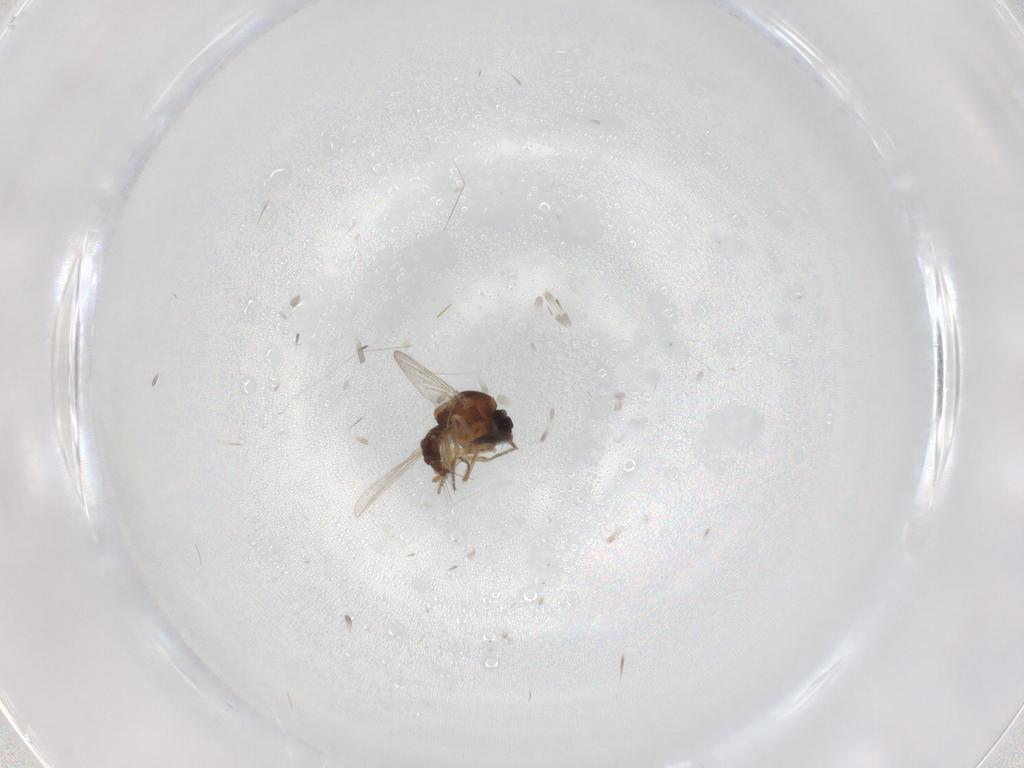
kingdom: Animalia
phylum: Arthropoda
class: Insecta
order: Diptera
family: Ceratopogonidae
